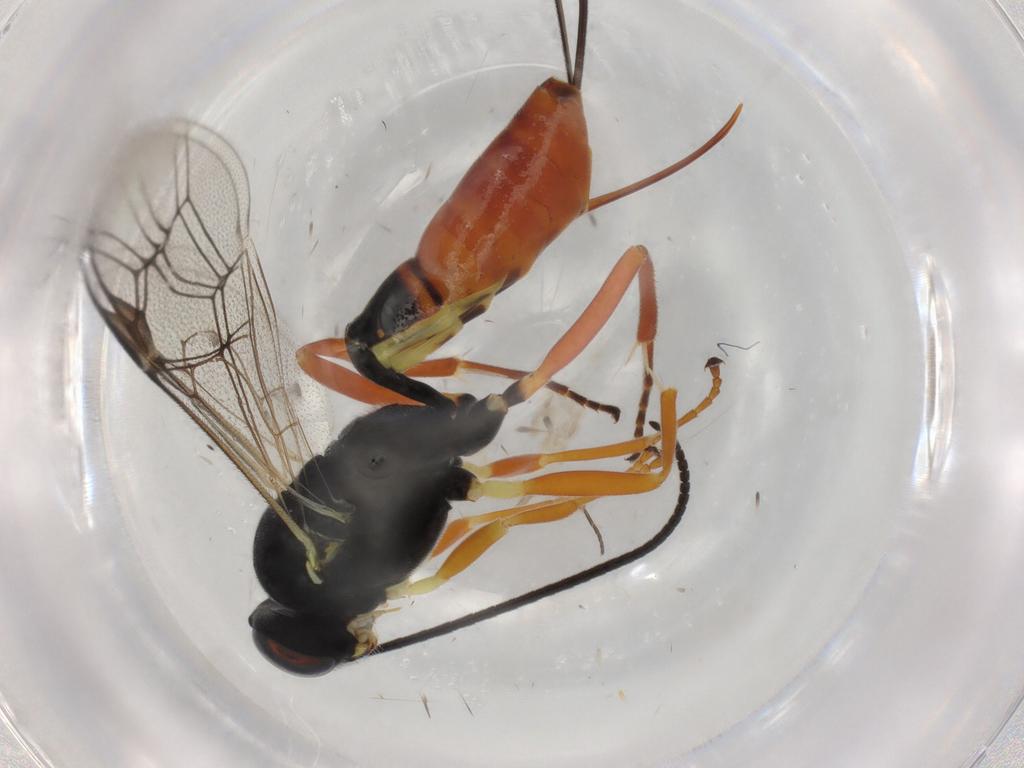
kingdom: Animalia
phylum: Arthropoda
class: Insecta
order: Hymenoptera
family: Ichneumonidae
